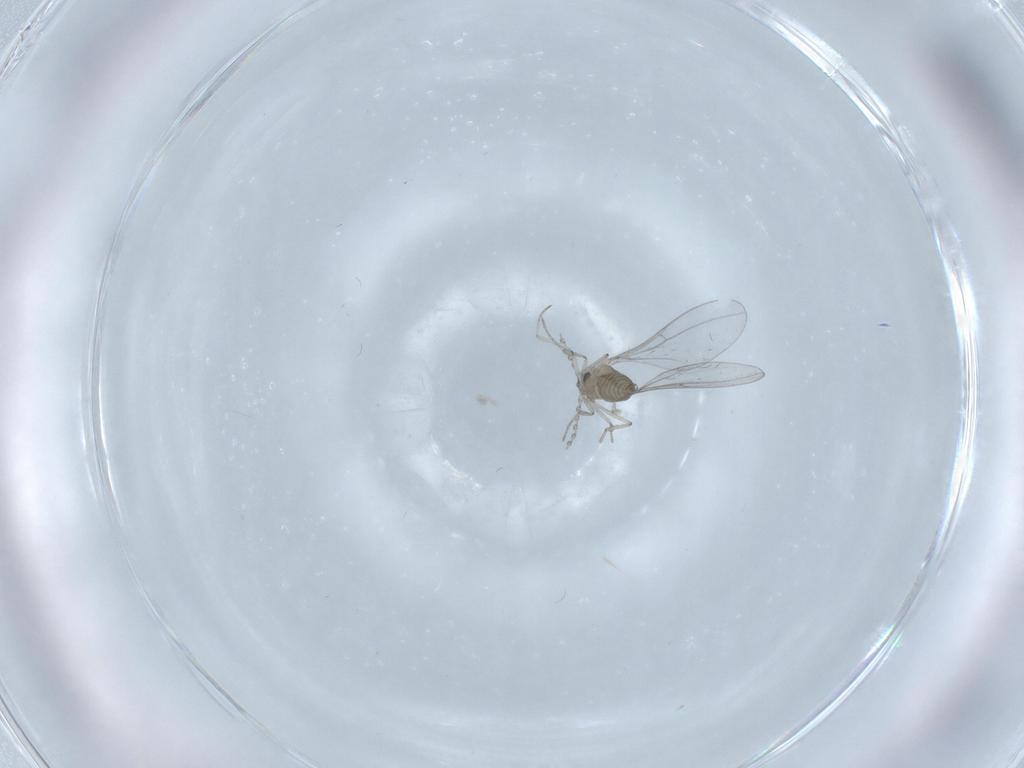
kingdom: Animalia
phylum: Arthropoda
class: Insecta
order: Diptera
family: Cecidomyiidae
